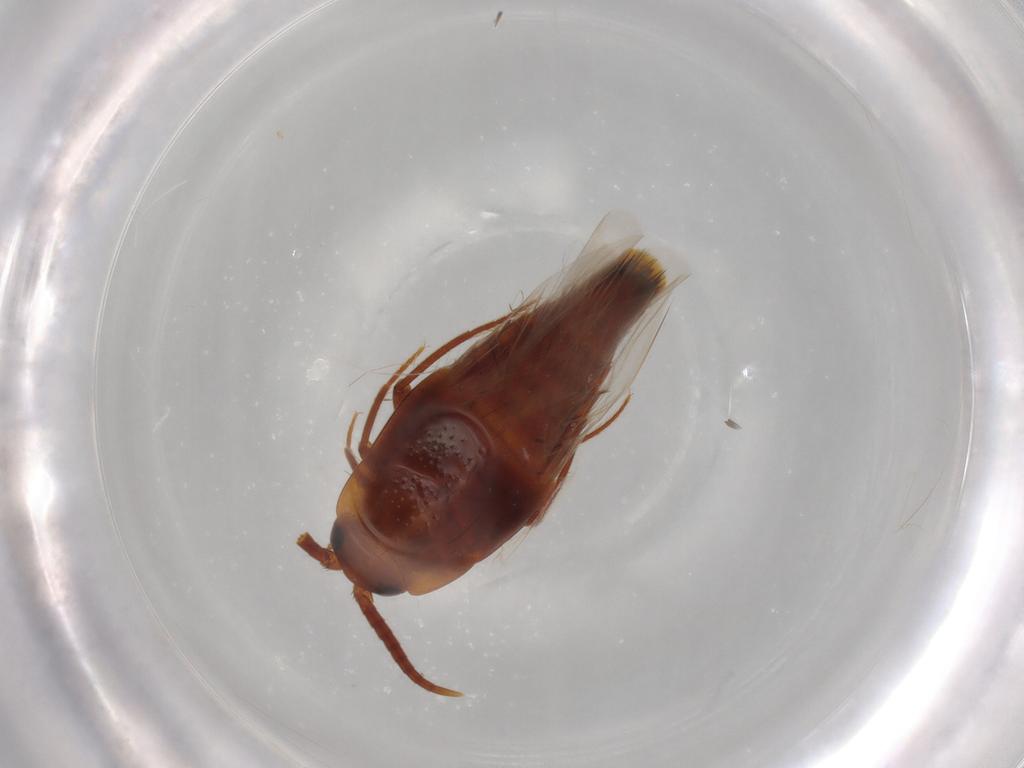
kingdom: Animalia
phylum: Arthropoda
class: Insecta
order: Coleoptera
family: Staphylinidae
